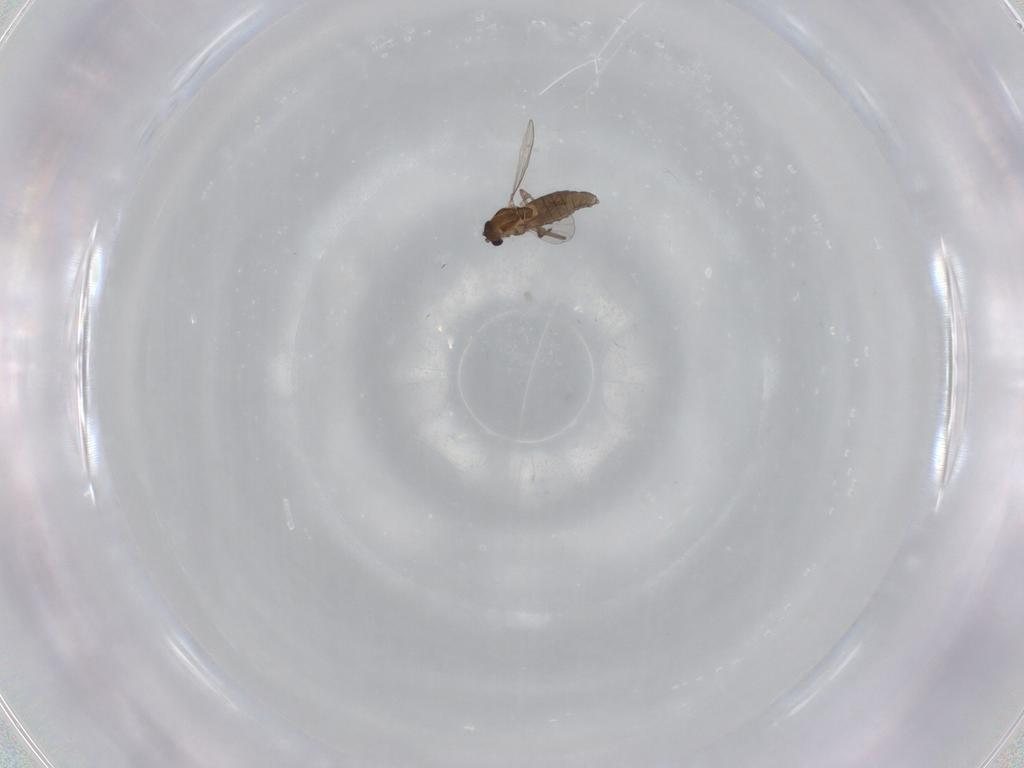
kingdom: Animalia
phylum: Arthropoda
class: Insecta
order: Diptera
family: Chironomidae
